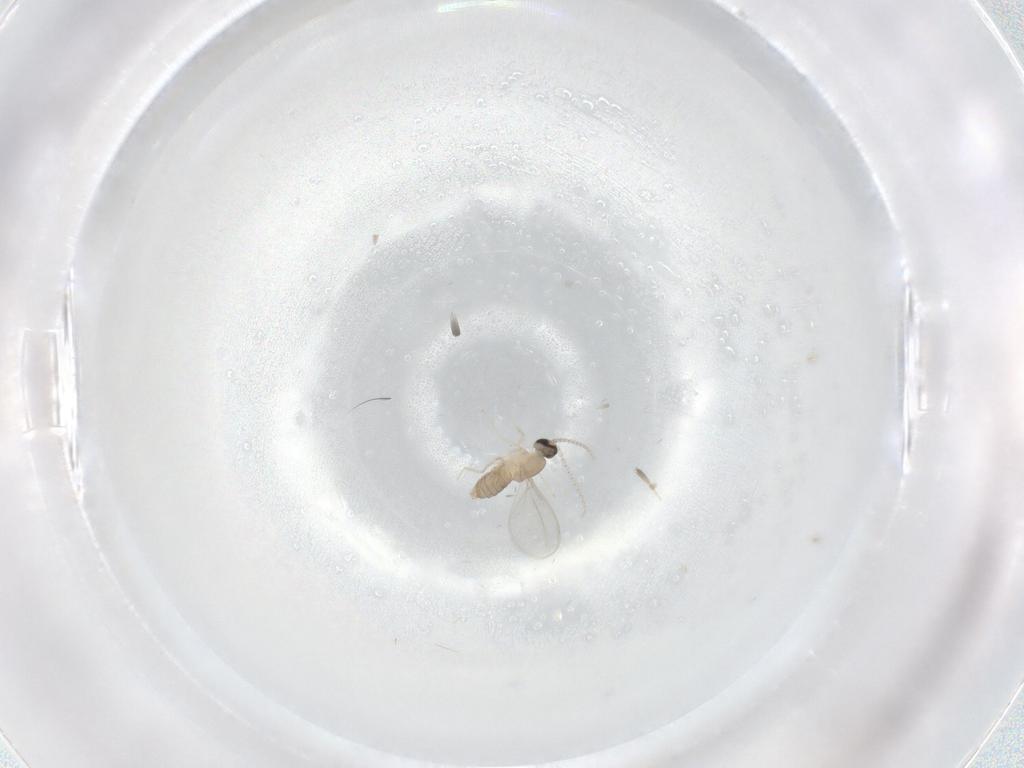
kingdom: Animalia
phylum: Arthropoda
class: Insecta
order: Diptera
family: Cecidomyiidae
